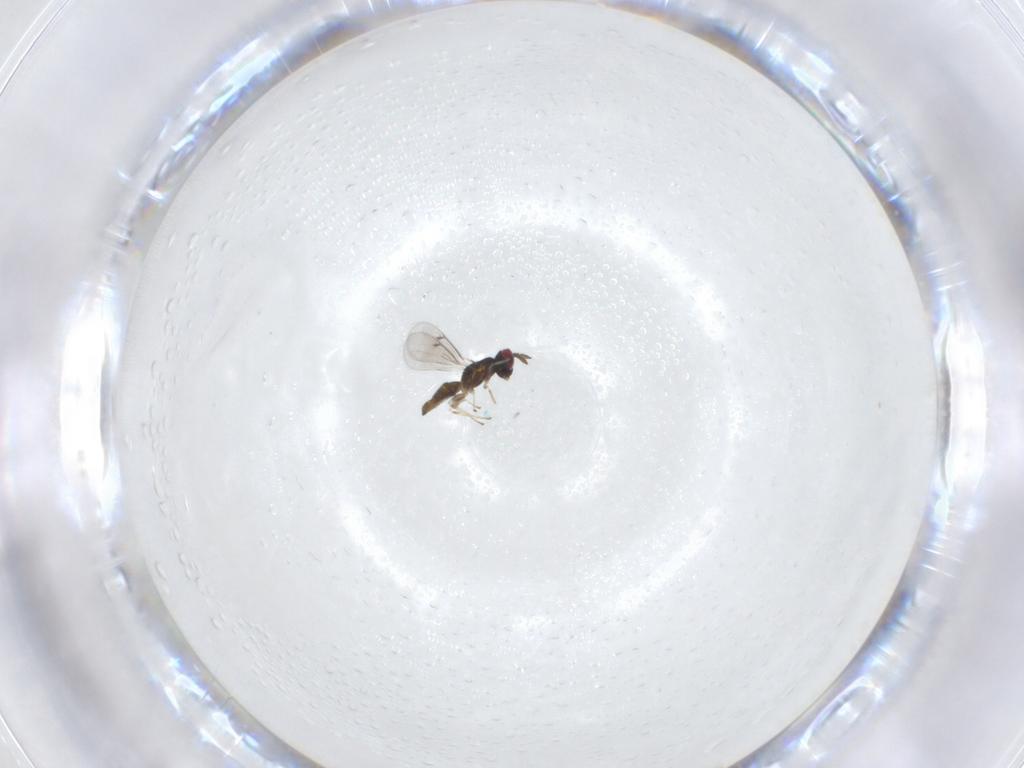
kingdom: Animalia
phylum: Arthropoda
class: Insecta
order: Hymenoptera
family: Eulophidae
